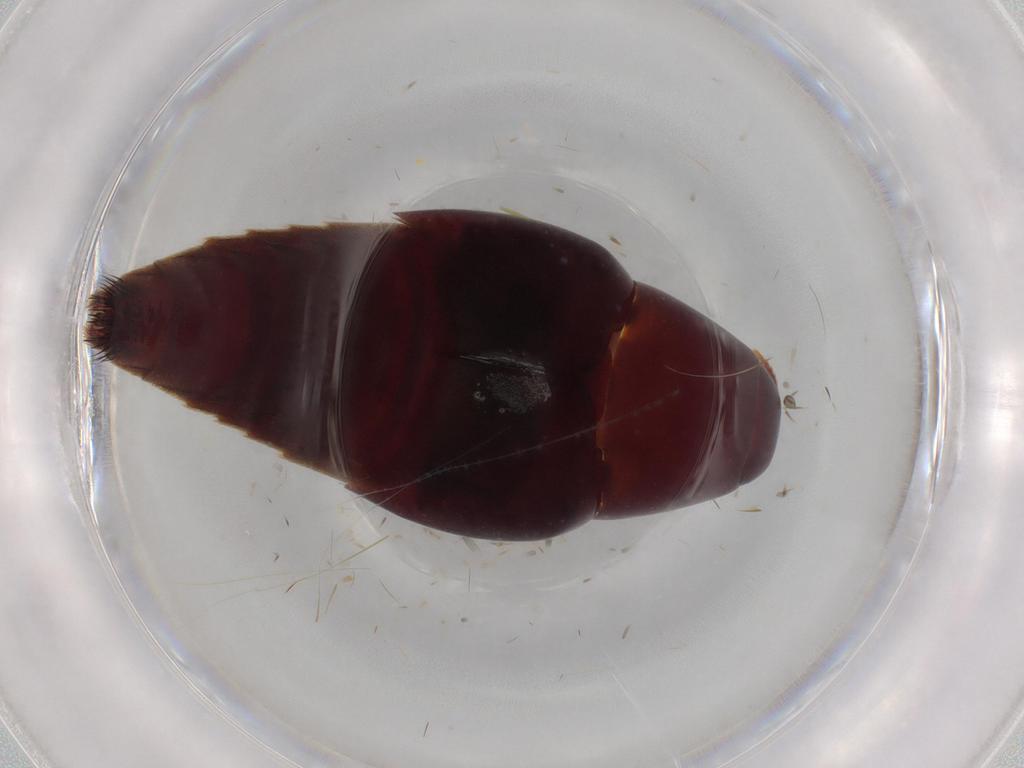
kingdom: Animalia
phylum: Arthropoda
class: Insecta
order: Coleoptera
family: Staphylinidae
